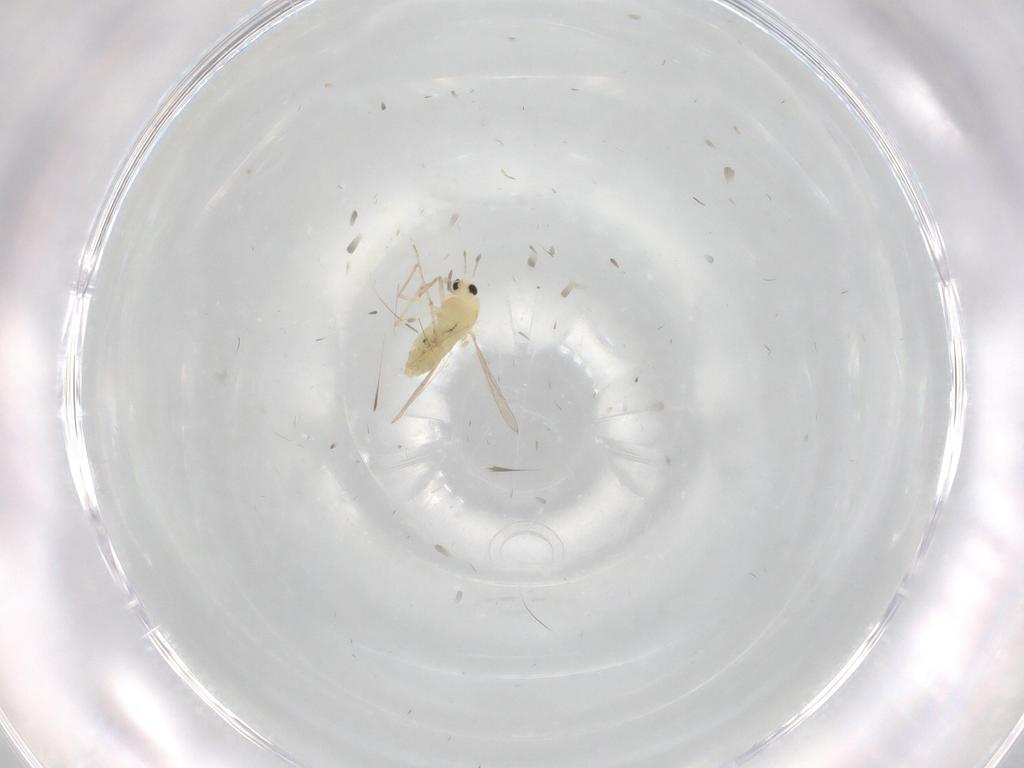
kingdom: Animalia
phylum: Arthropoda
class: Insecta
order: Diptera
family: Chironomidae
